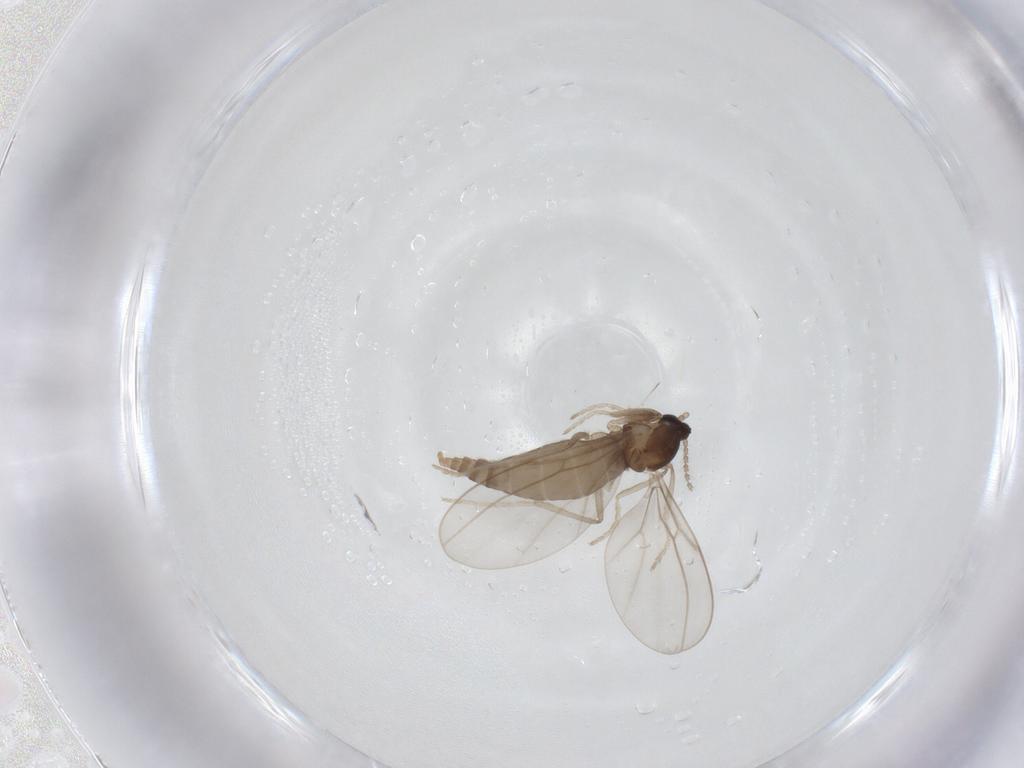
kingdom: Animalia
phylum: Arthropoda
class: Insecta
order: Diptera
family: Cecidomyiidae
